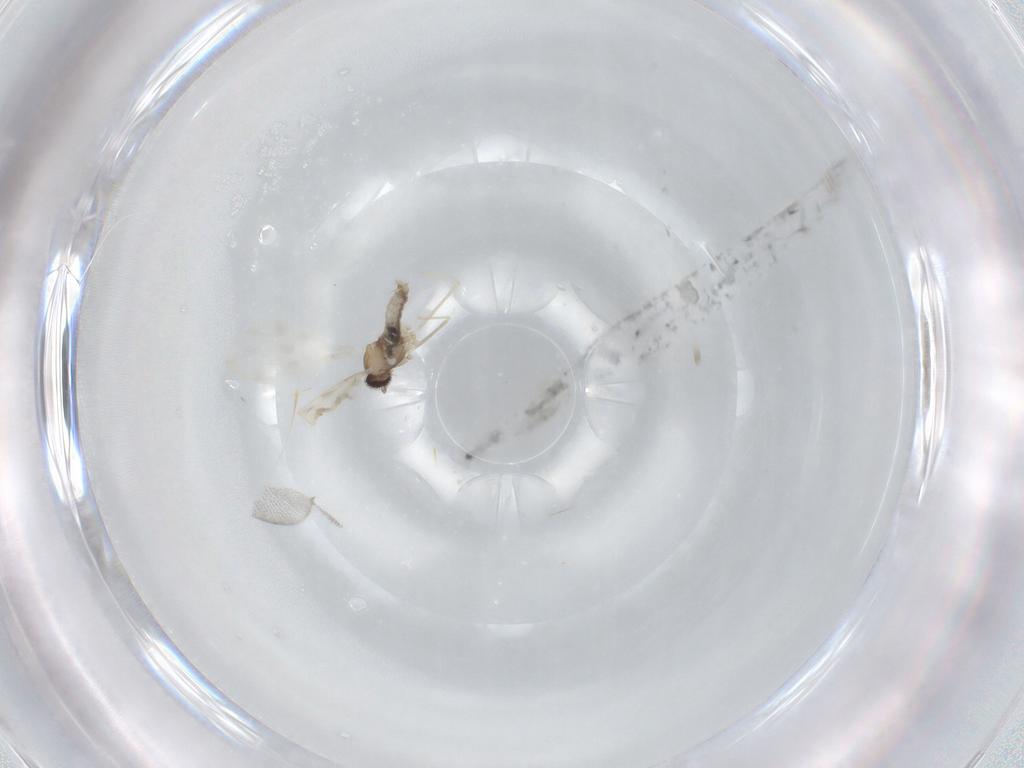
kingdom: Animalia
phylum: Arthropoda
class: Insecta
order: Diptera
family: Cecidomyiidae
